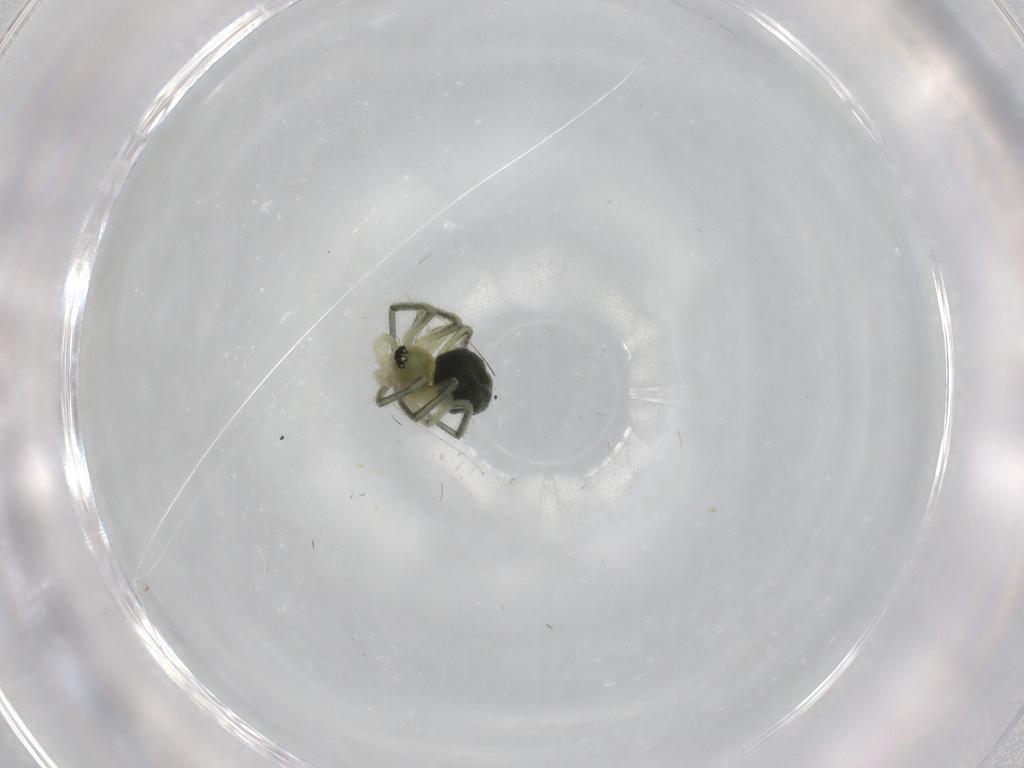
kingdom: Animalia
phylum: Arthropoda
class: Arachnida
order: Araneae
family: Linyphiidae
